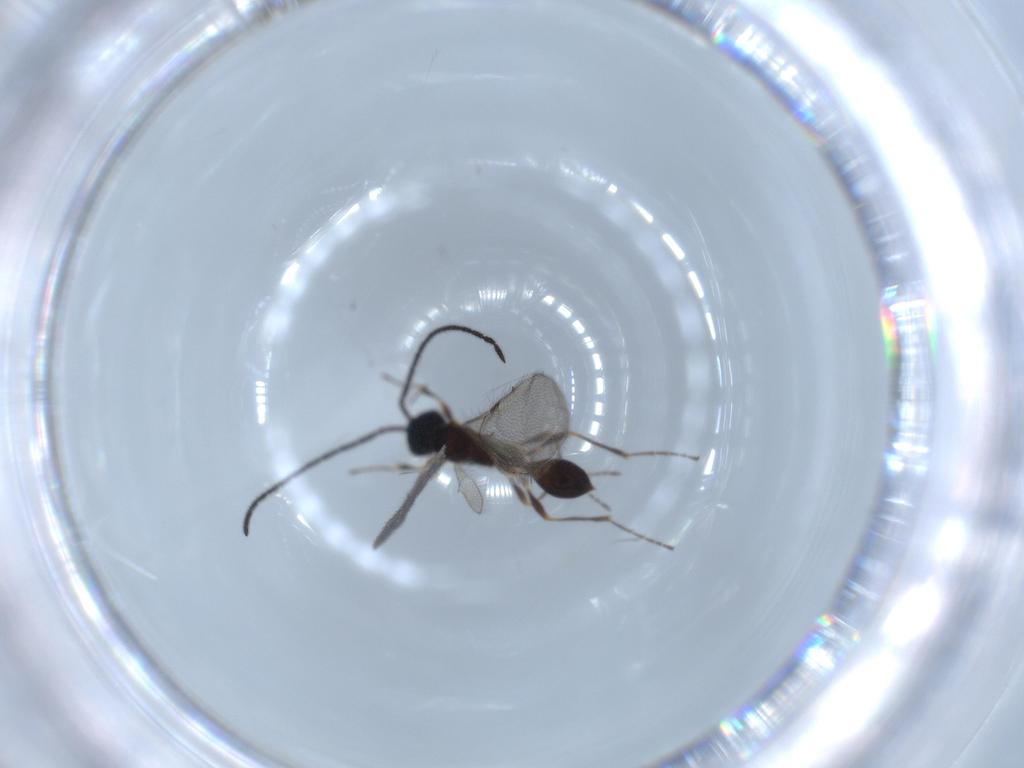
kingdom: Animalia
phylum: Arthropoda
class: Insecta
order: Hymenoptera
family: Diapriidae
